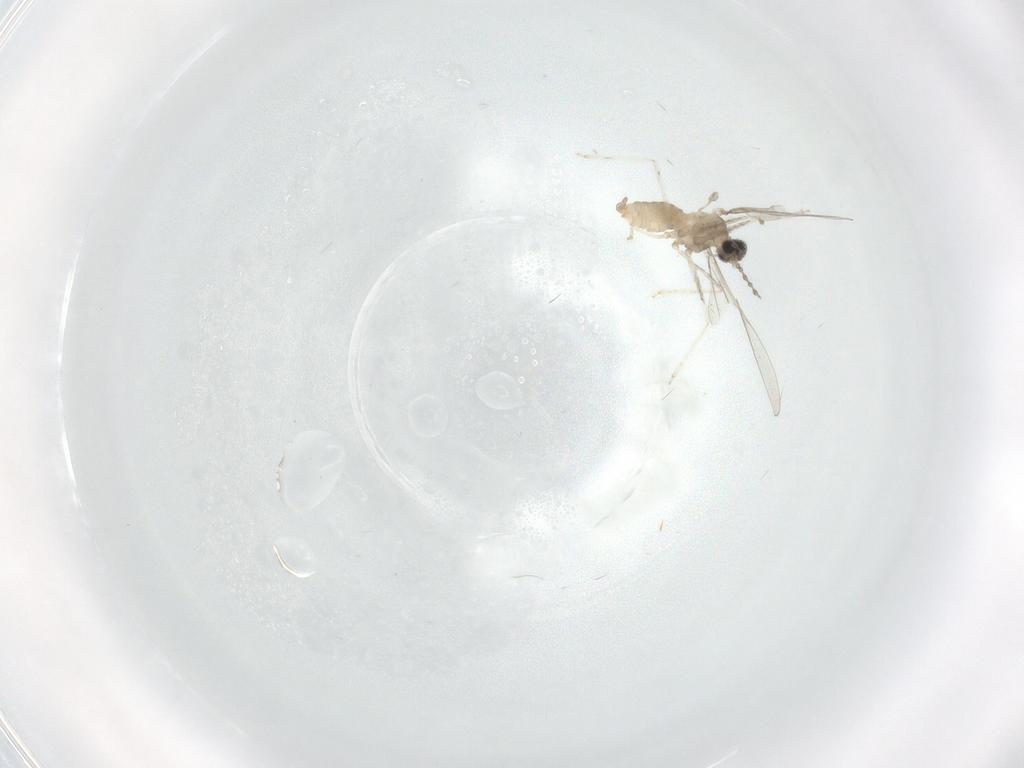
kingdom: Animalia
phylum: Arthropoda
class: Insecta
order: Diptera
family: Cecidomyiidae
